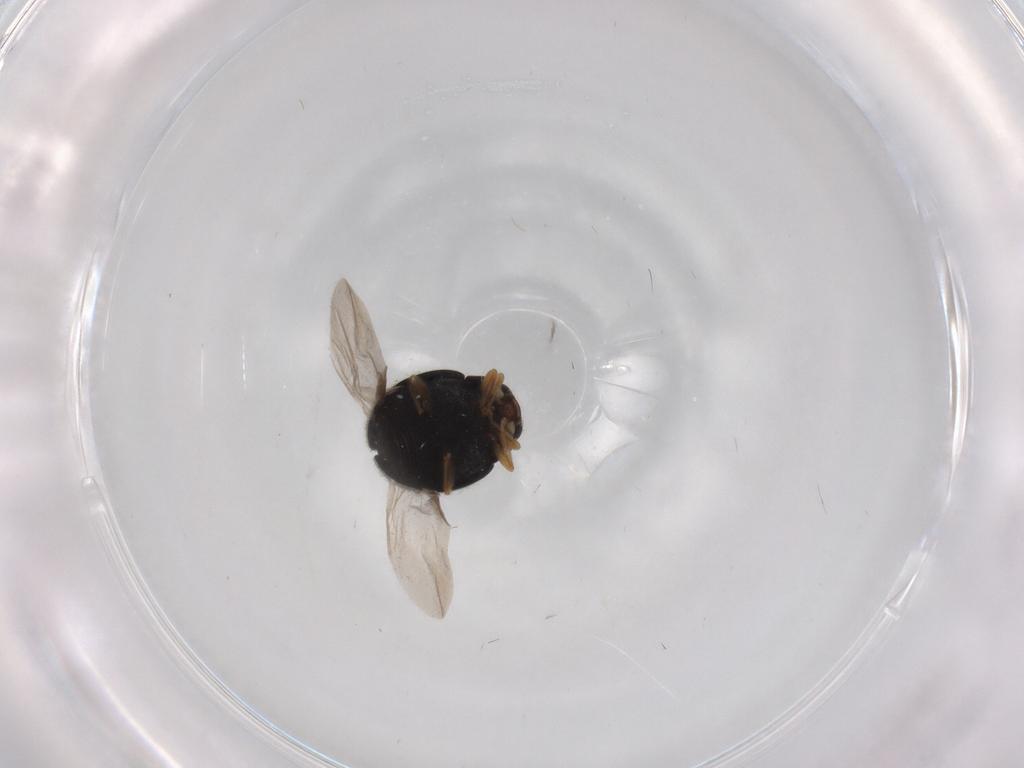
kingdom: Animalia
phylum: Arthropoda
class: Insecta
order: Coleoptera
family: Coccinellidae
